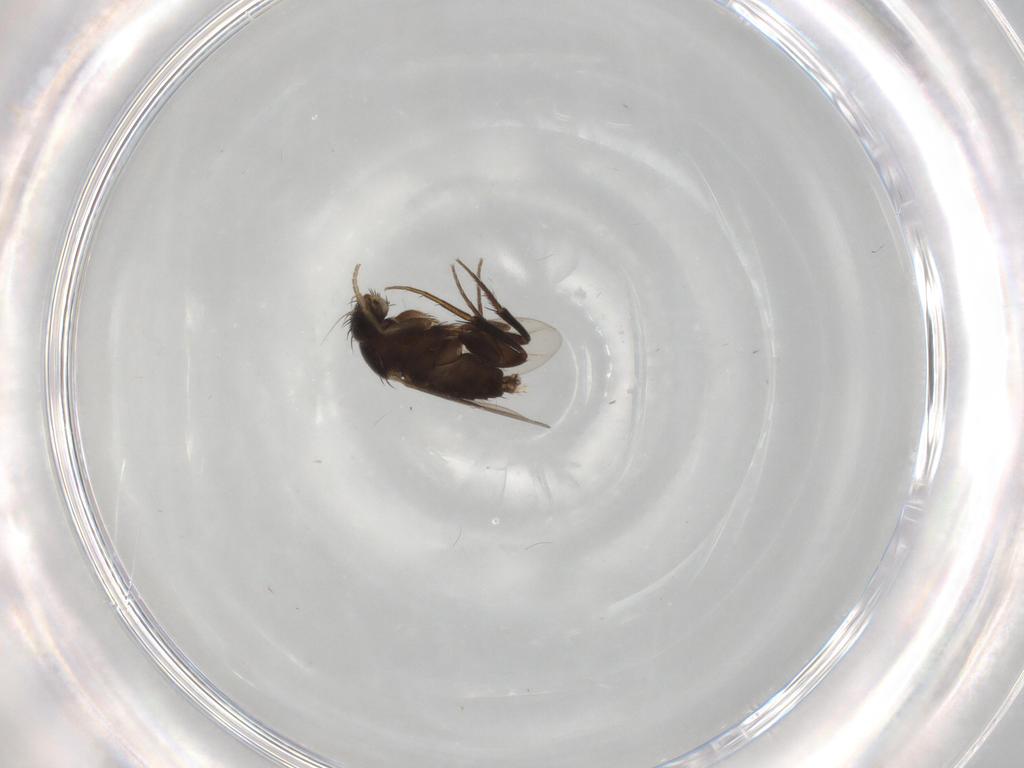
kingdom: Animalia
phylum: Arthropoda
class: Insecta
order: Diptera
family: Phoridae
